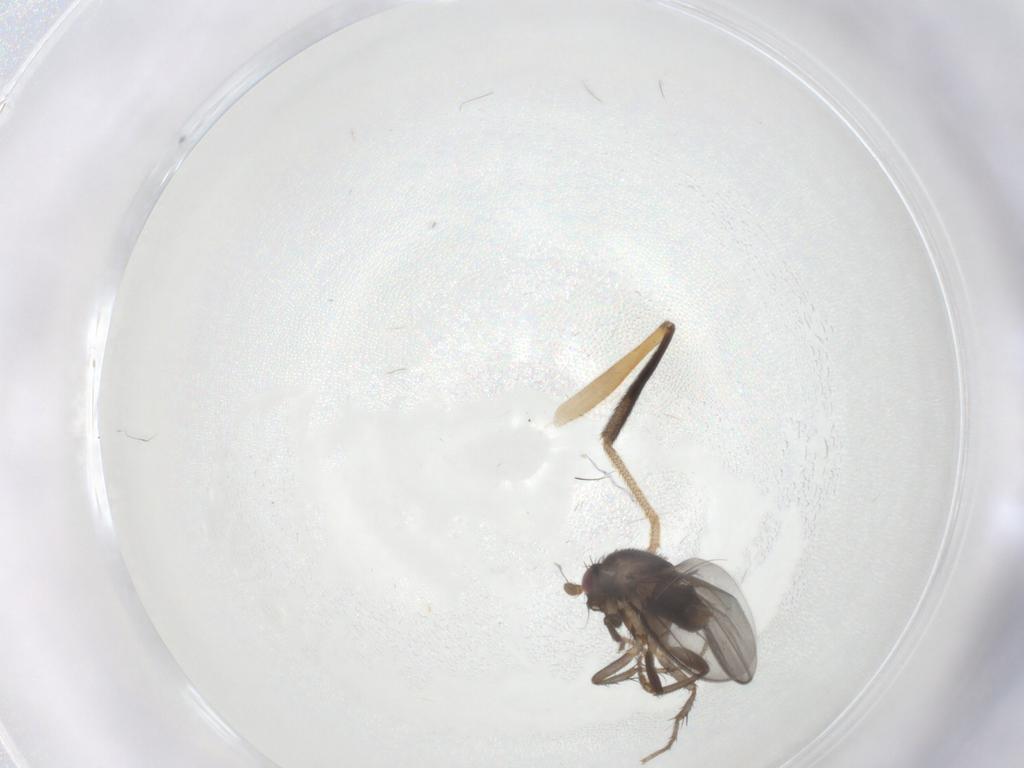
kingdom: Animalia
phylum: Arthropoda
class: Insecta
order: Diptera
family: Sphaeroceridae
